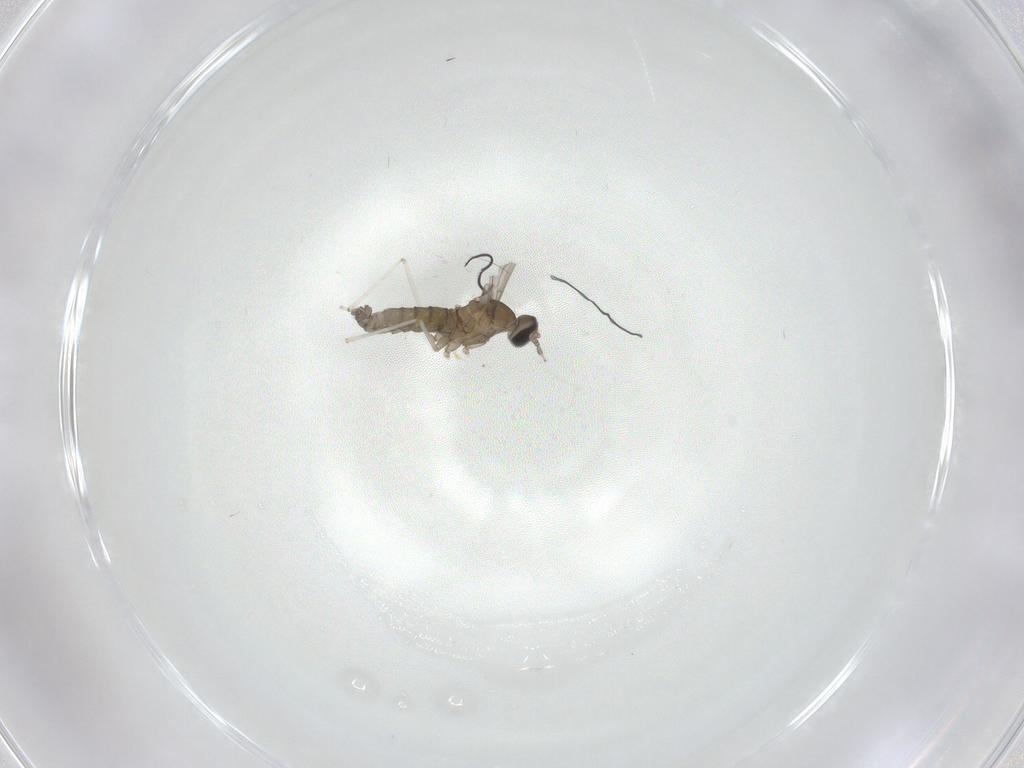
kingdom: Animalia
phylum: Arthropoda
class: Insecta
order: Diptera
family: Cecidomyiidae
